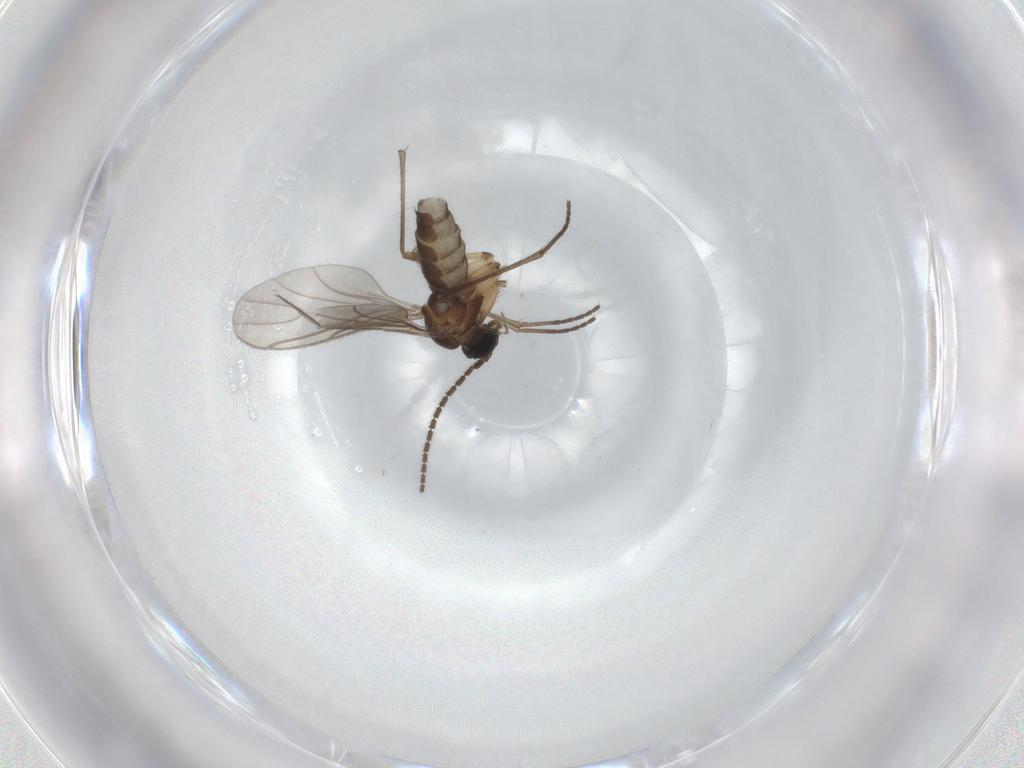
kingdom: Animalia
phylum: Arthropoda
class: Insecta
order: Diptera
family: Sciaridae
